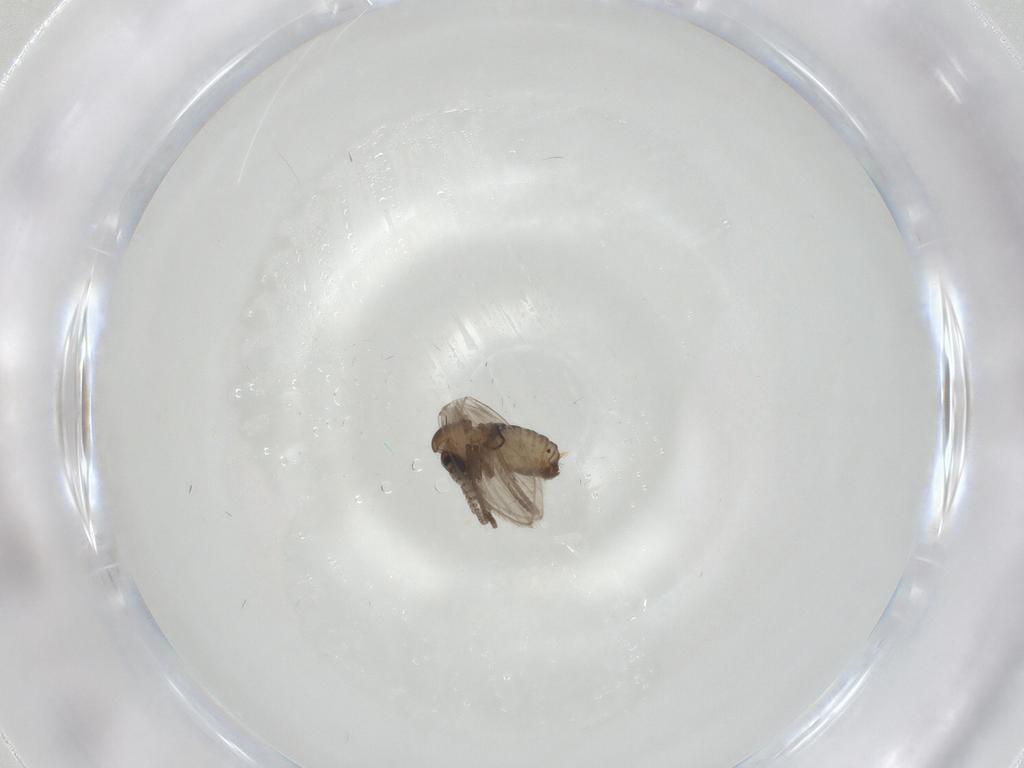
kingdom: Animalia
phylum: Arthropoda
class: Insecta
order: Diptera
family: Psychodidae
